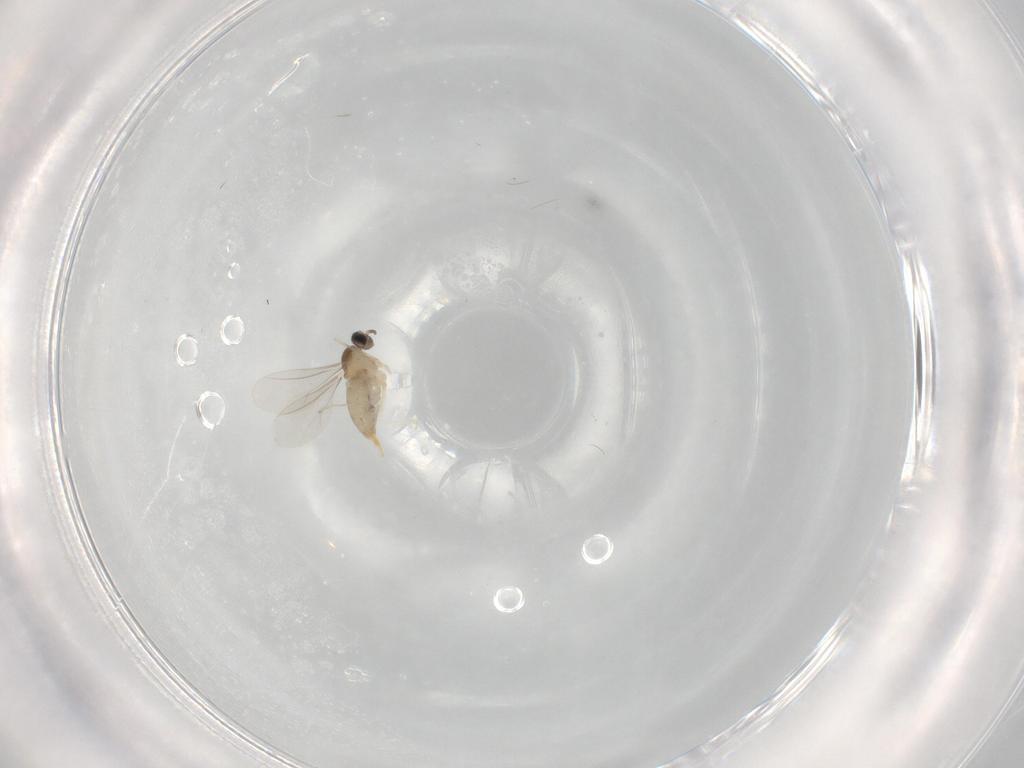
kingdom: Animalia
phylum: Arthropoda
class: Insecta
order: Diptera
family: Cecidomyiidae
